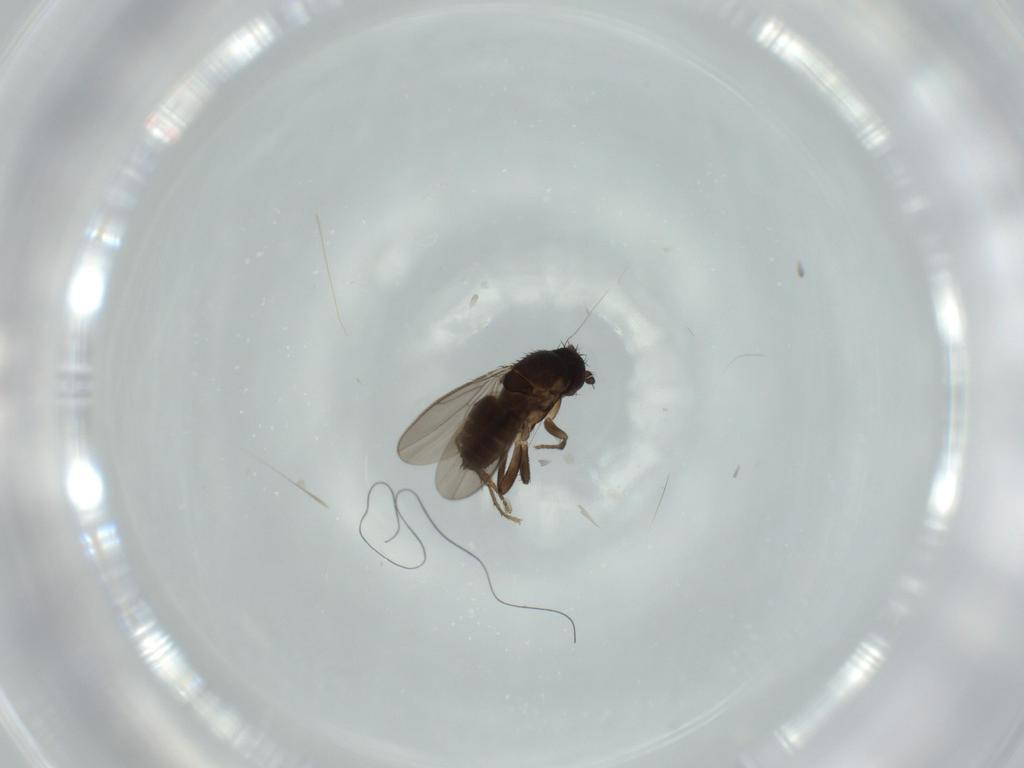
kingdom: Animalia
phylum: Arthropoda
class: Insecta
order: Diptera
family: Sphaeroceridae
